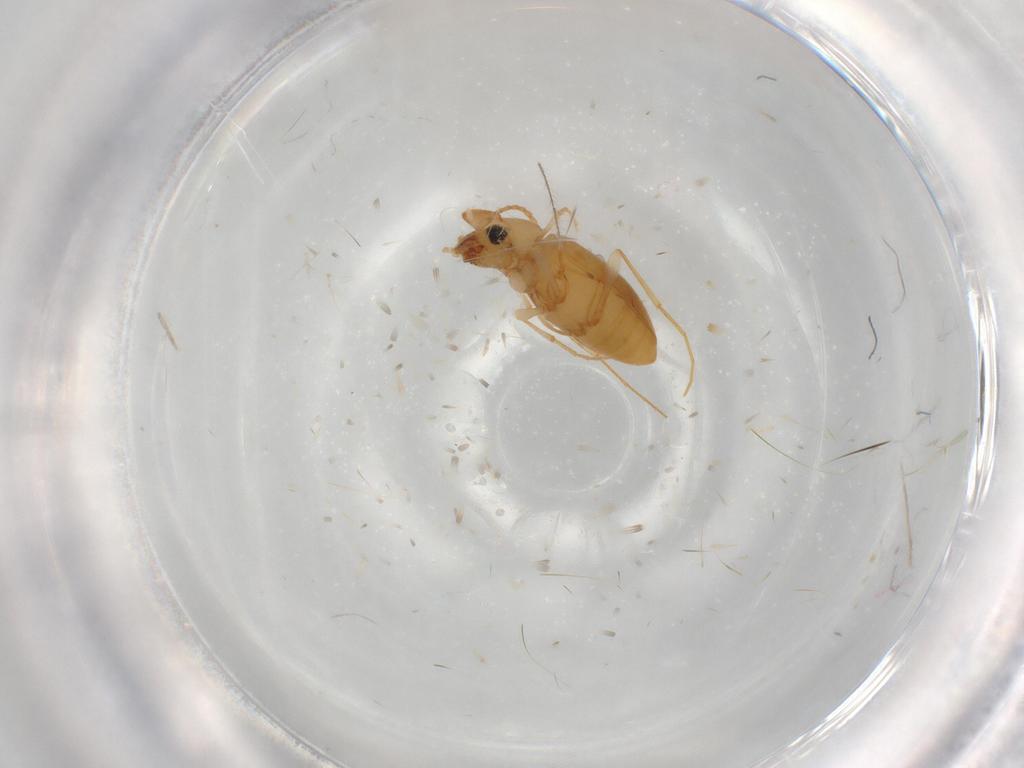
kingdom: Animalia
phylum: Arthropoda
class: Insecta
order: Coleoptera
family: Anthicidae
